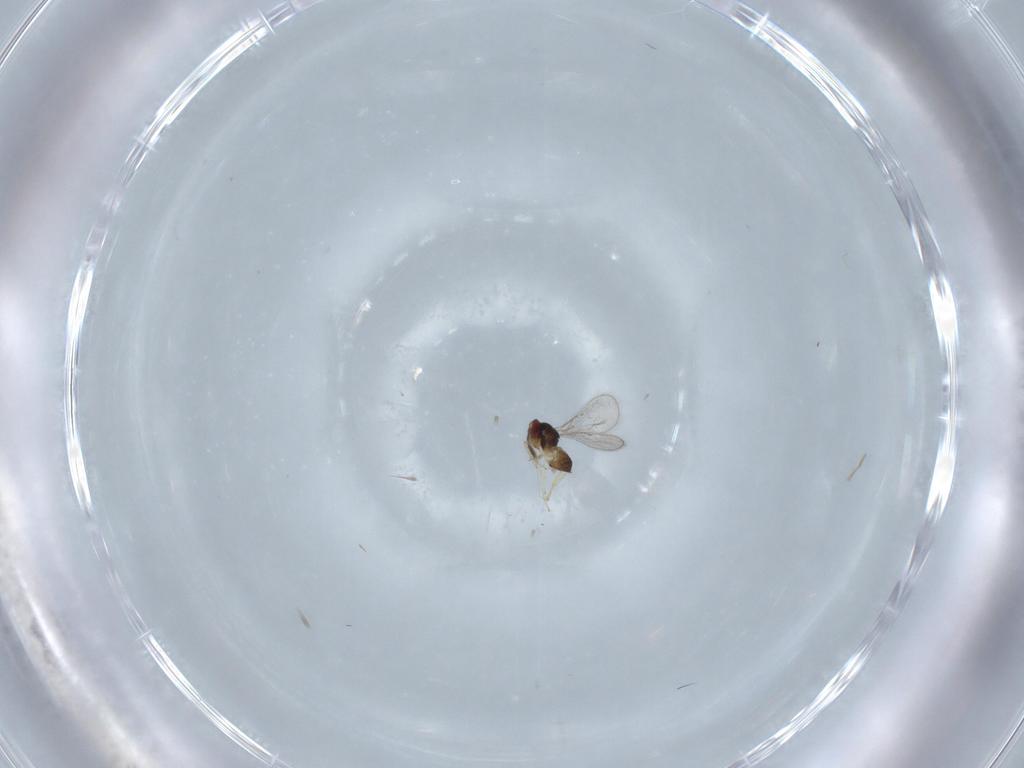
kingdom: Animalia
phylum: Arthropoda
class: Insecta
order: Hymenoptera
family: Eulophidae
